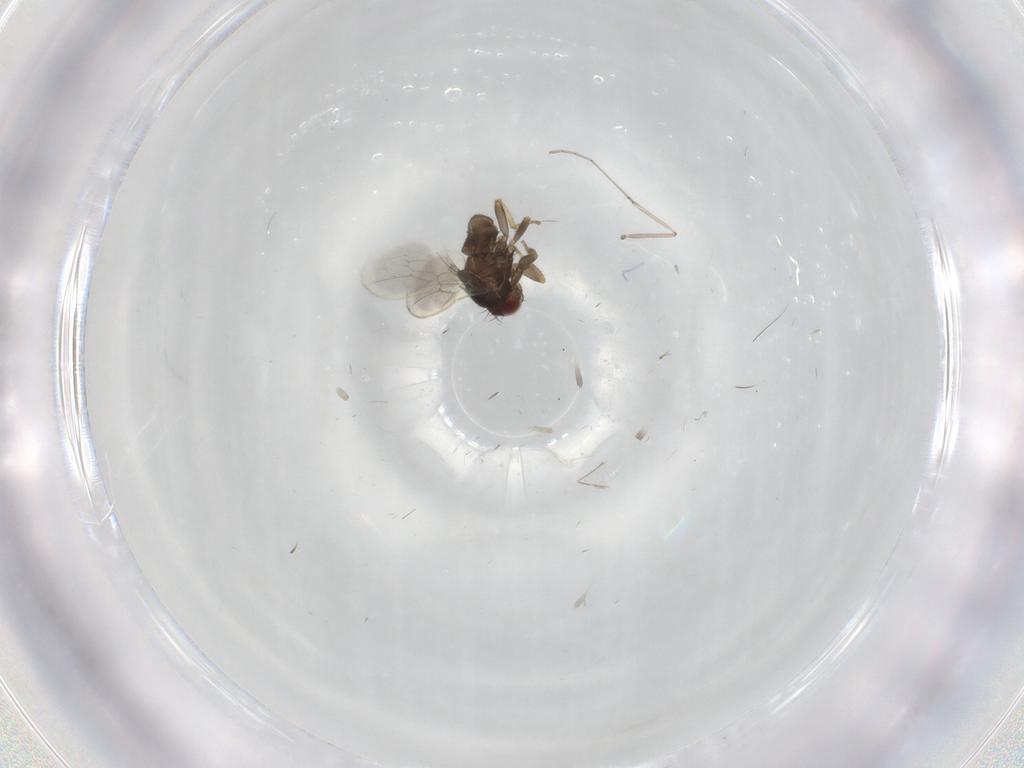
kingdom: Animalia
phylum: Arthropoda
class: Insecta
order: Diptera
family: Sphaeroceridae
